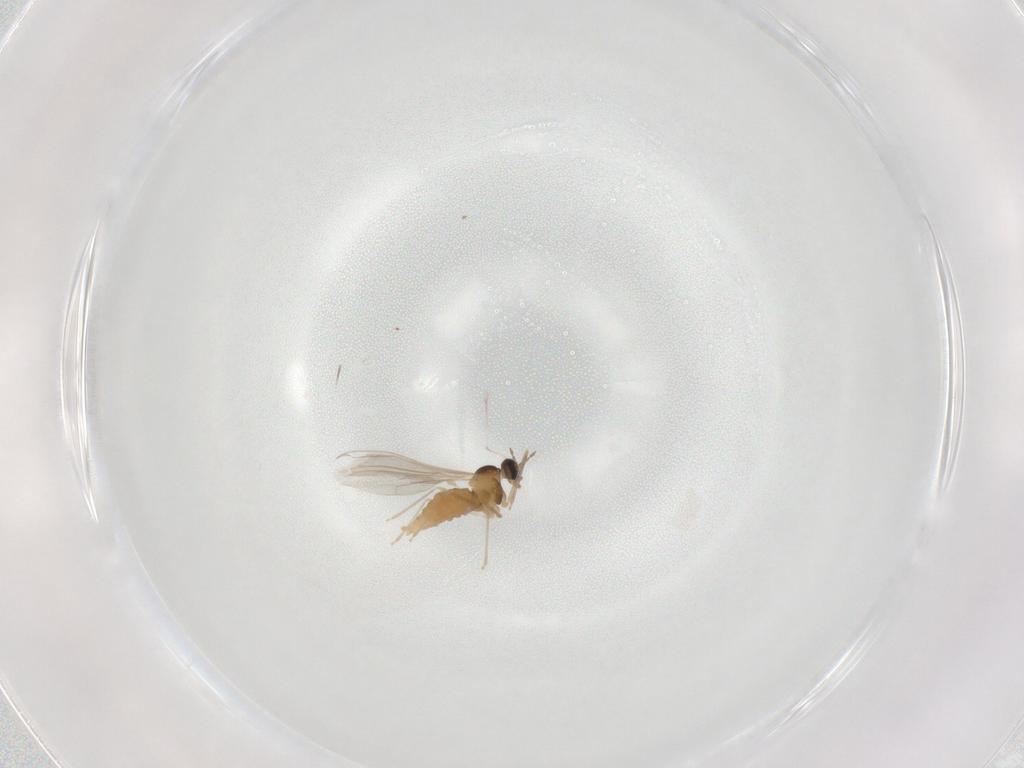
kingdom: Animalia
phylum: Arthropoda
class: Insecta
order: Diptera
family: Cecidomyiidae
